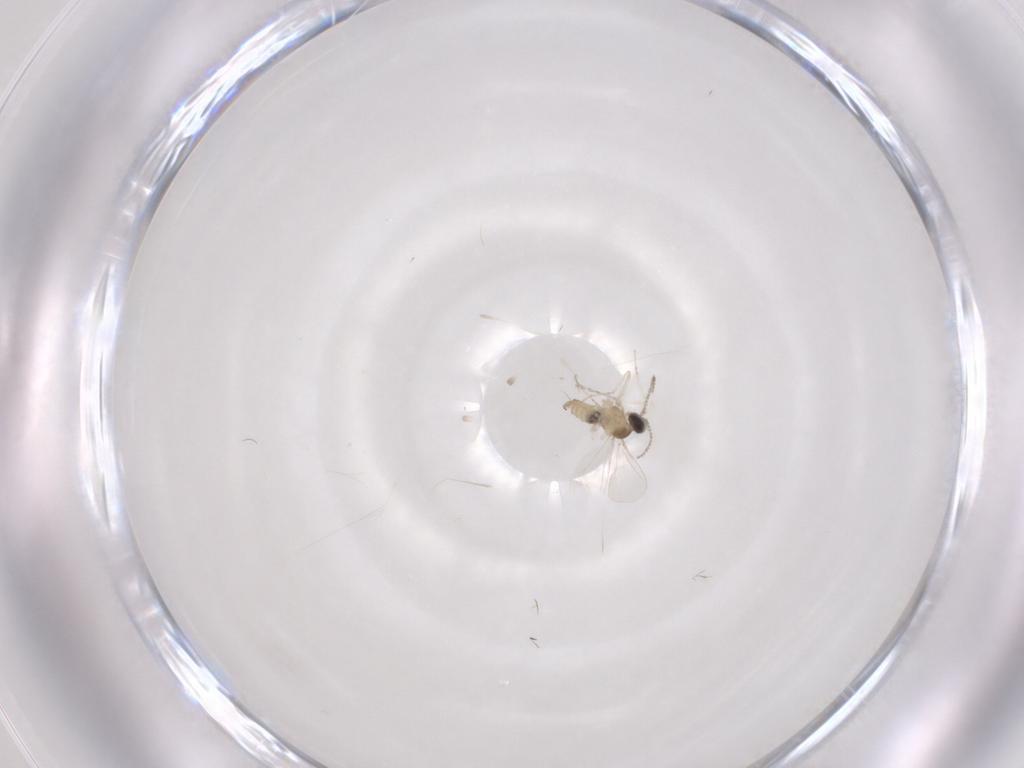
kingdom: Animalia
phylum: Arthropoda
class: Insecta
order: Diptera
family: Cecidomyiidae
